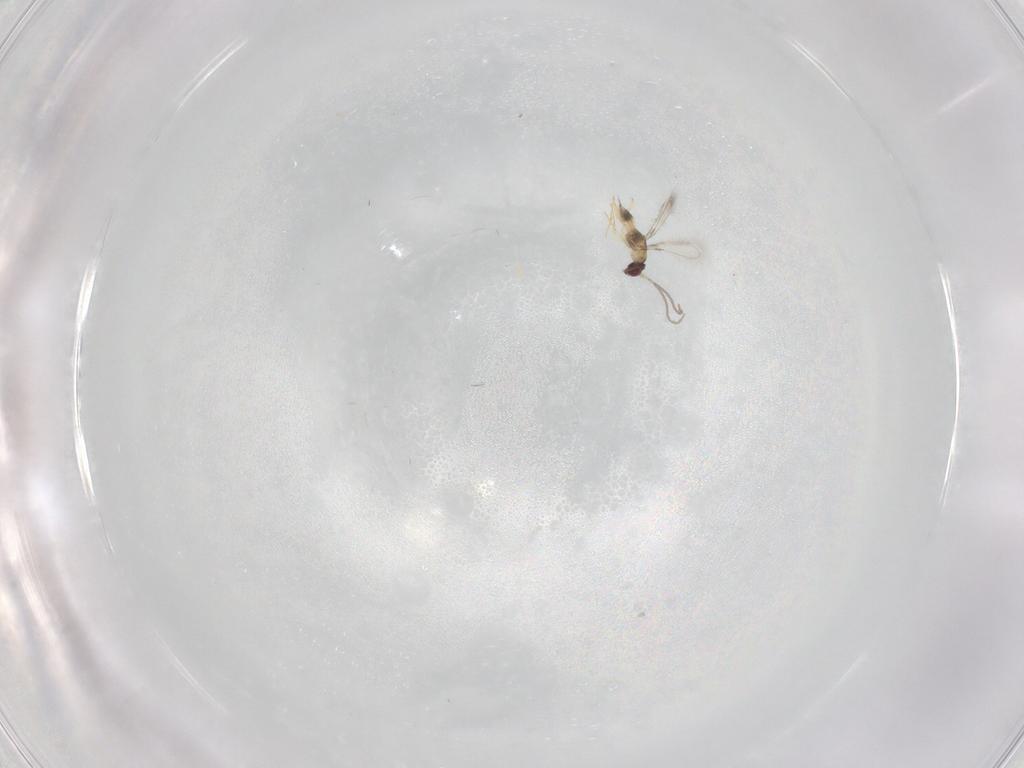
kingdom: Animalia
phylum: Arthropoda
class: Insecta
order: Hymenoptera
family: Mymaridae
